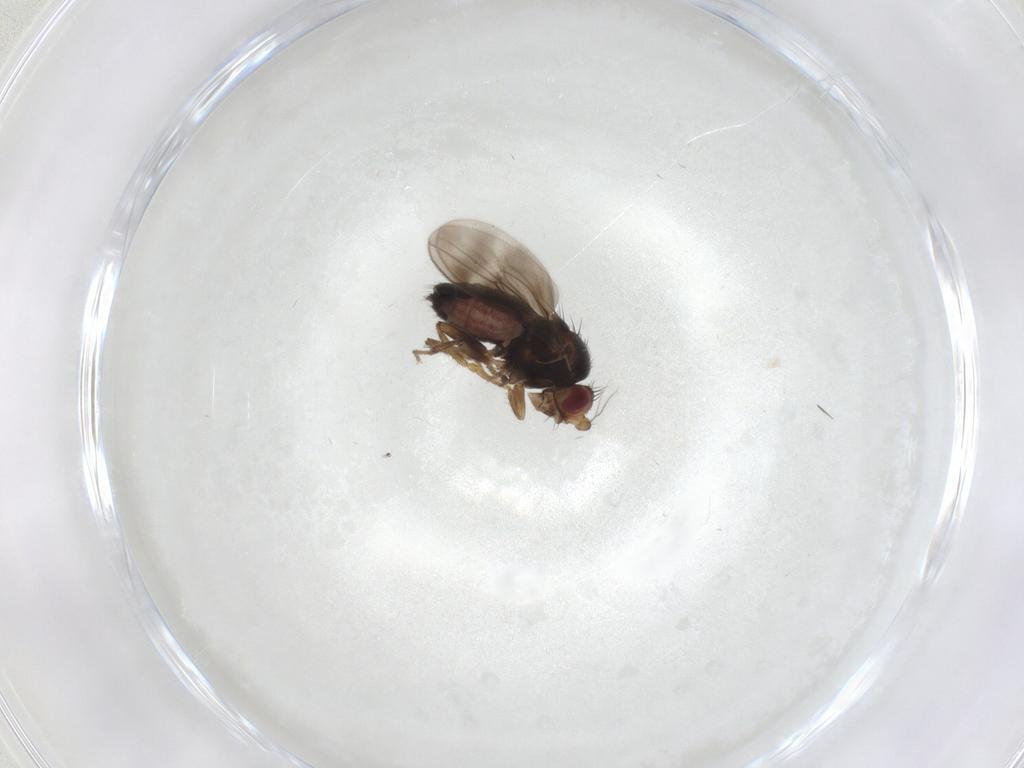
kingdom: Animalia
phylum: Arthropoda
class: Insecta
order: Diptera
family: Sphaeroceridae
